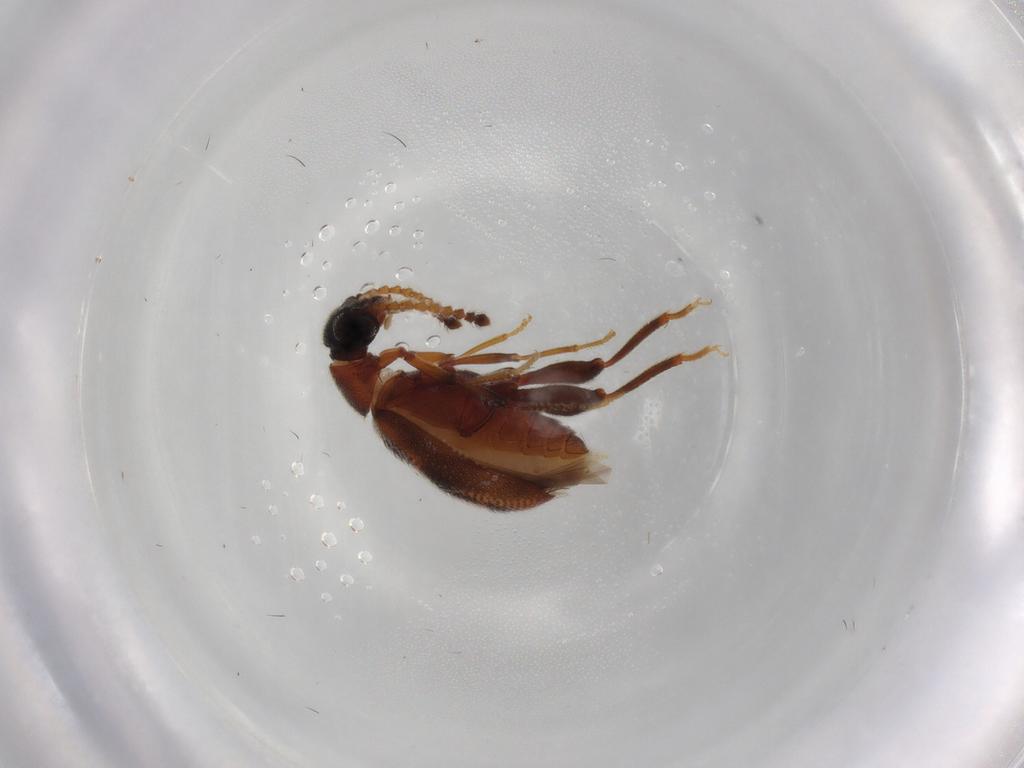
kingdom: Animalia
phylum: Arthropoda
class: Insecta
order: Coleoptera
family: Aderidae
